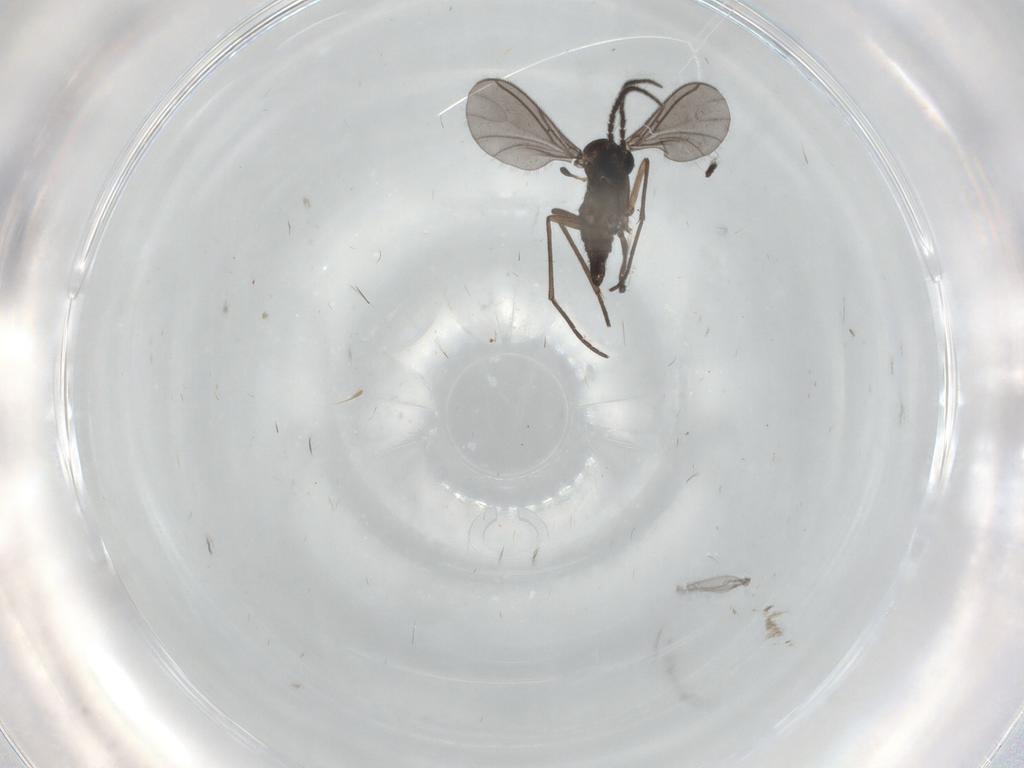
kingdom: Animalia
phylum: Arthropoda
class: Insecta
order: Diptera
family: Sciaridae
